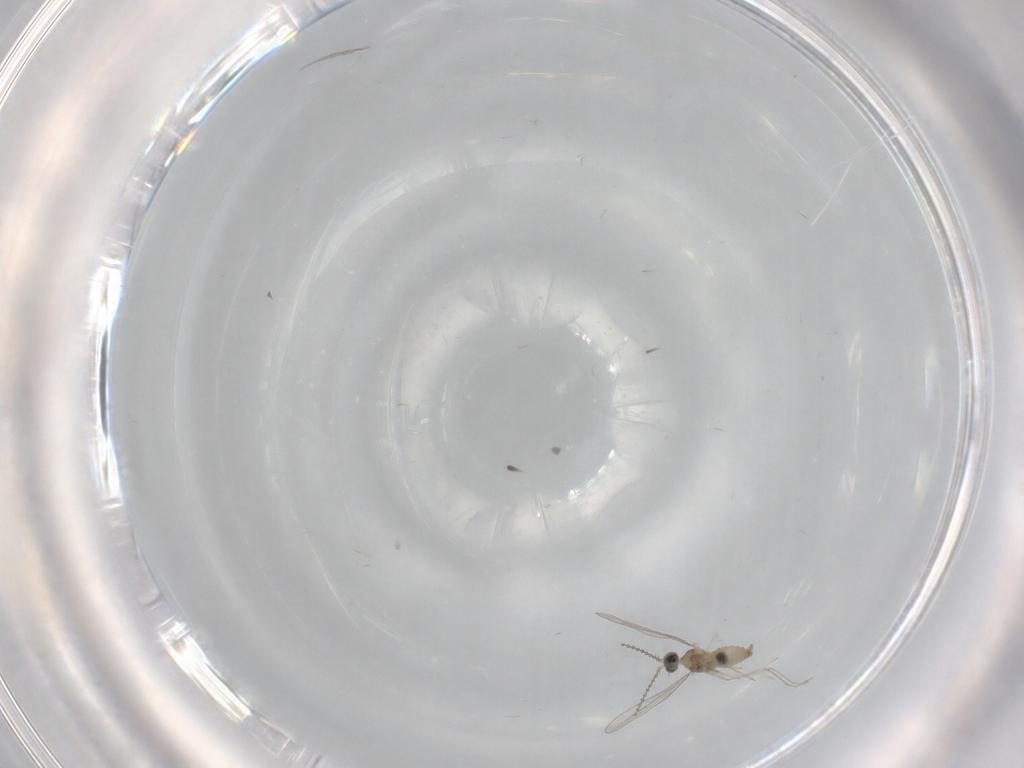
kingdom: Animalia
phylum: Arthropoda
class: Insecta
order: Diptera
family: Cecidomyiidae
